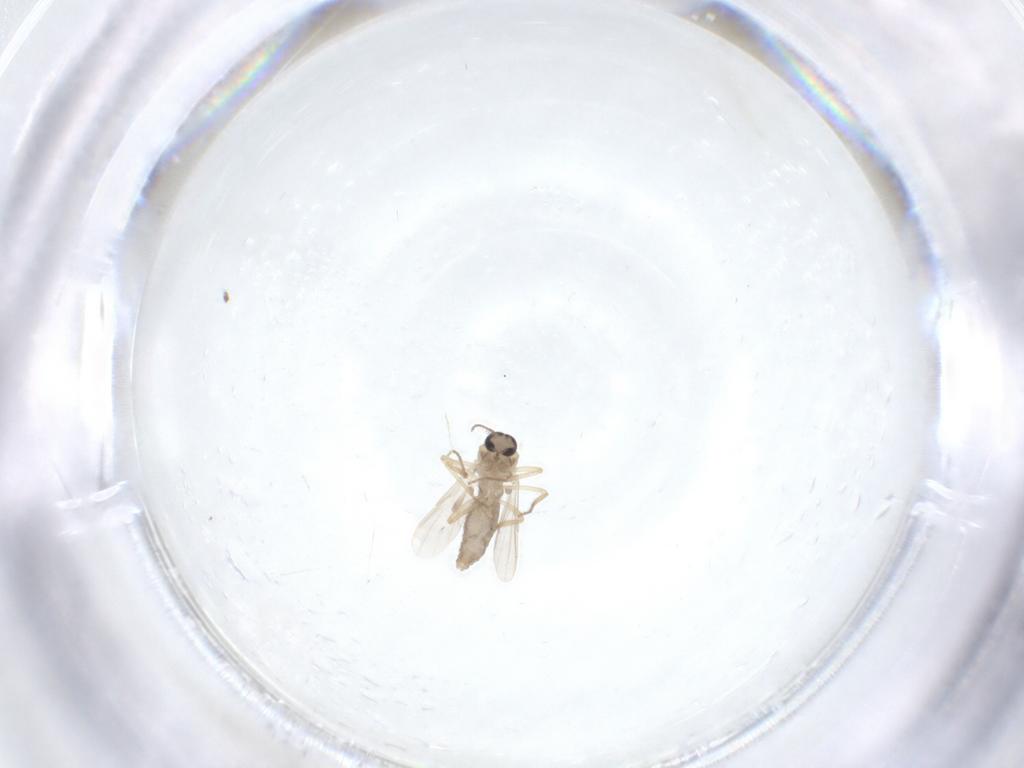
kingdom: Animalia
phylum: Arthropoda
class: Insecta
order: Diptera
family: Ceratopogonidae
